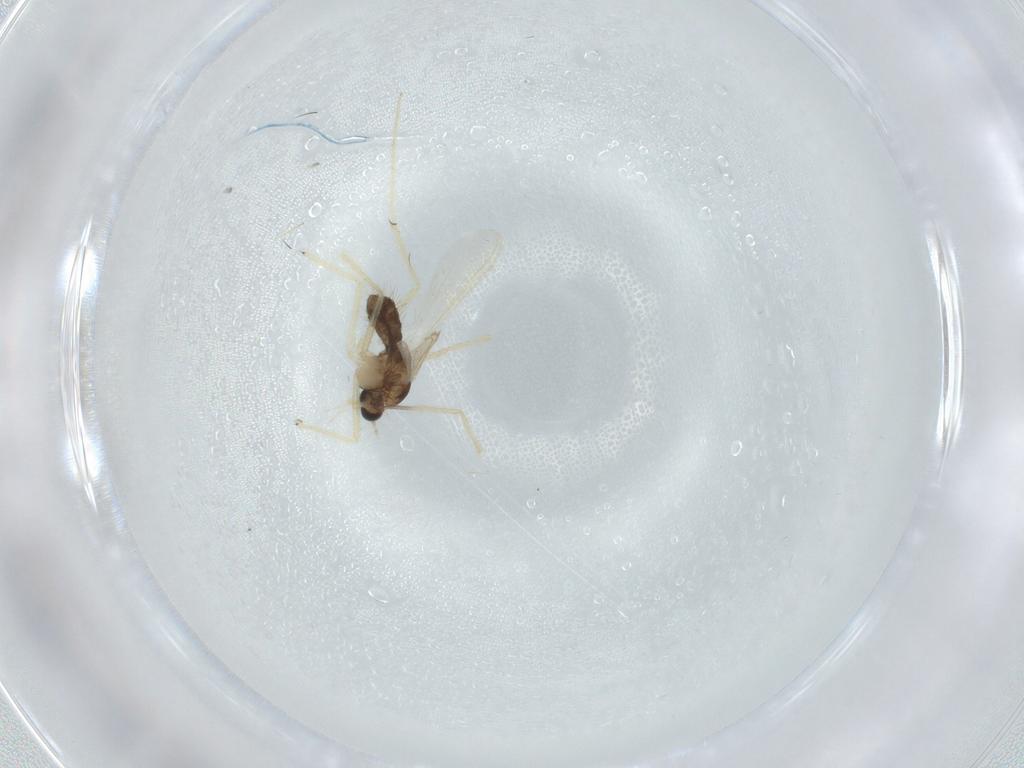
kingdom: Animalia
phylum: Arthropoda
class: Insecta
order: Diptera
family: Chironomidae
